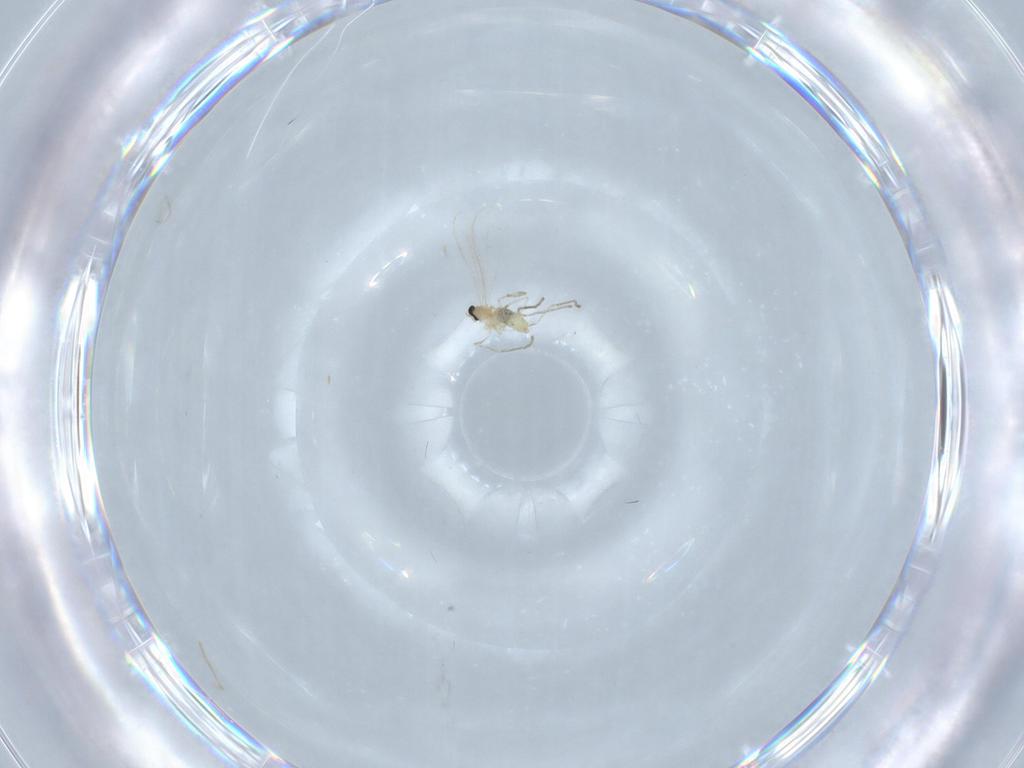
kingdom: Animalia
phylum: Arthropoda
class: Insecta
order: Diptera
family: Cecidomyiidae
